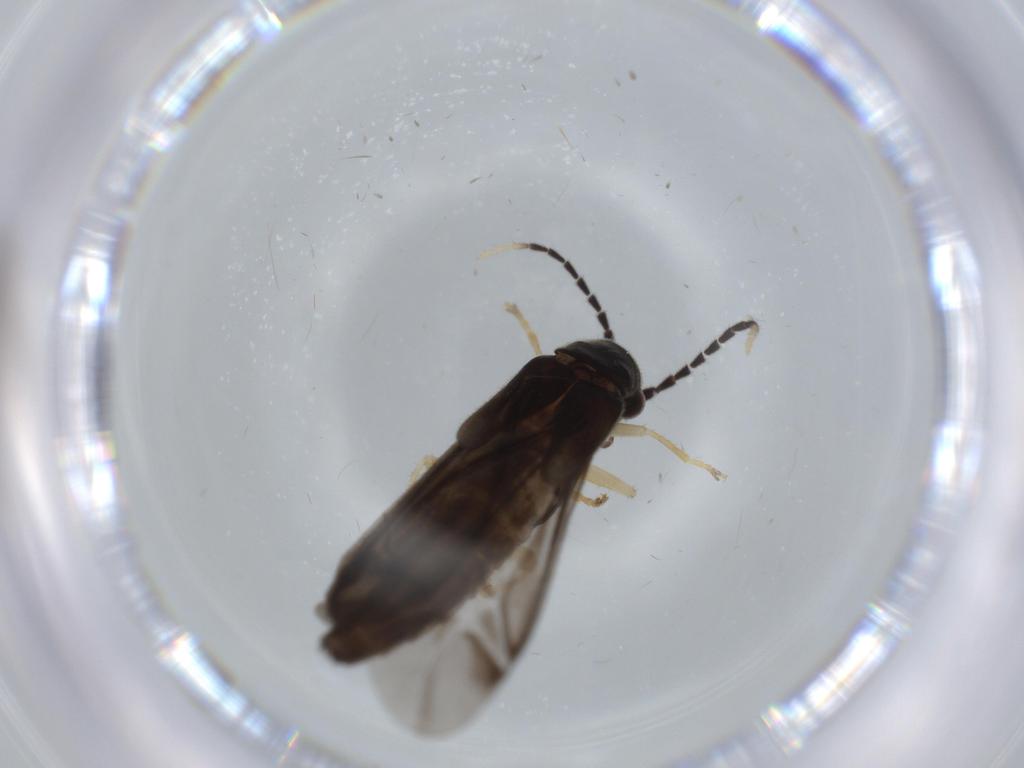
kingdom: Animalia
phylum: Arthropoda
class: Insecta
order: Coleoptera
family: Cantharidae
